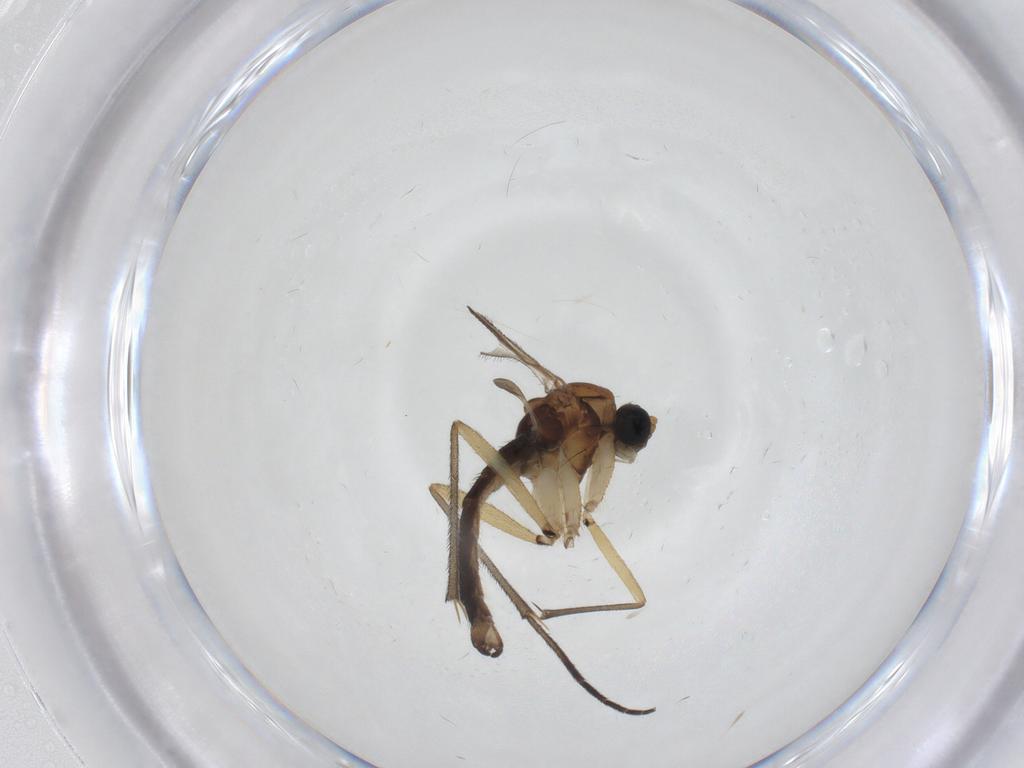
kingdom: Animalia
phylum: Arthropoda
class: Insecta
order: Diptera
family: Sciaridae
